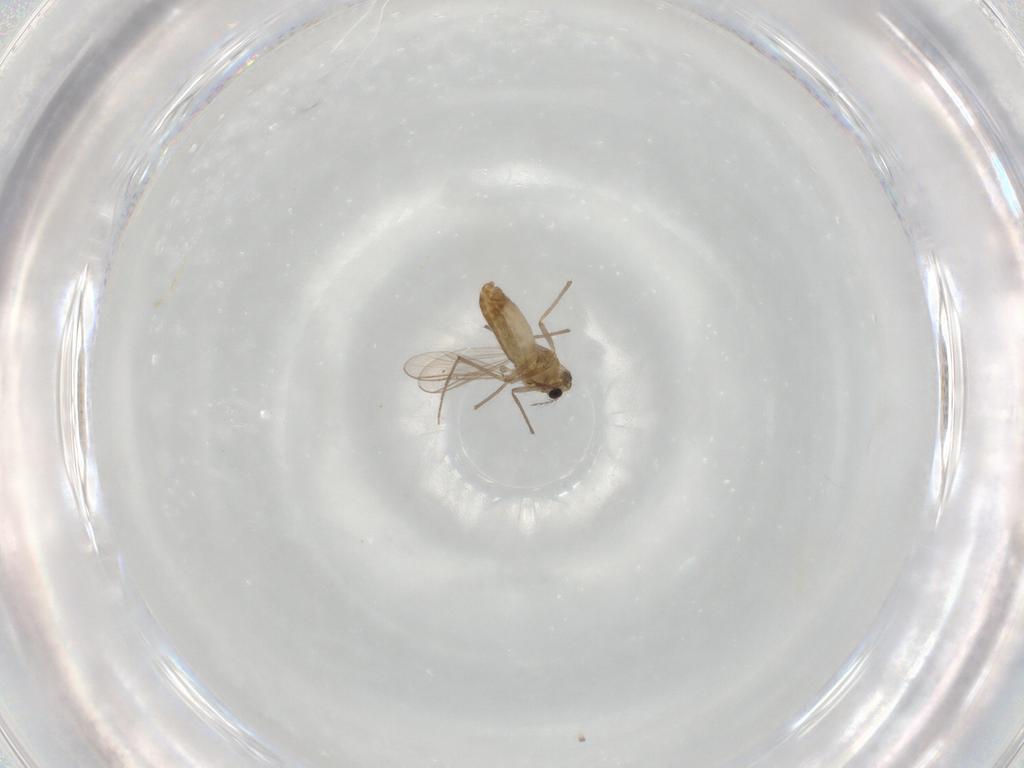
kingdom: Animalia
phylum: Arthropoda
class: Insecta
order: Diptera
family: Chironomidae
